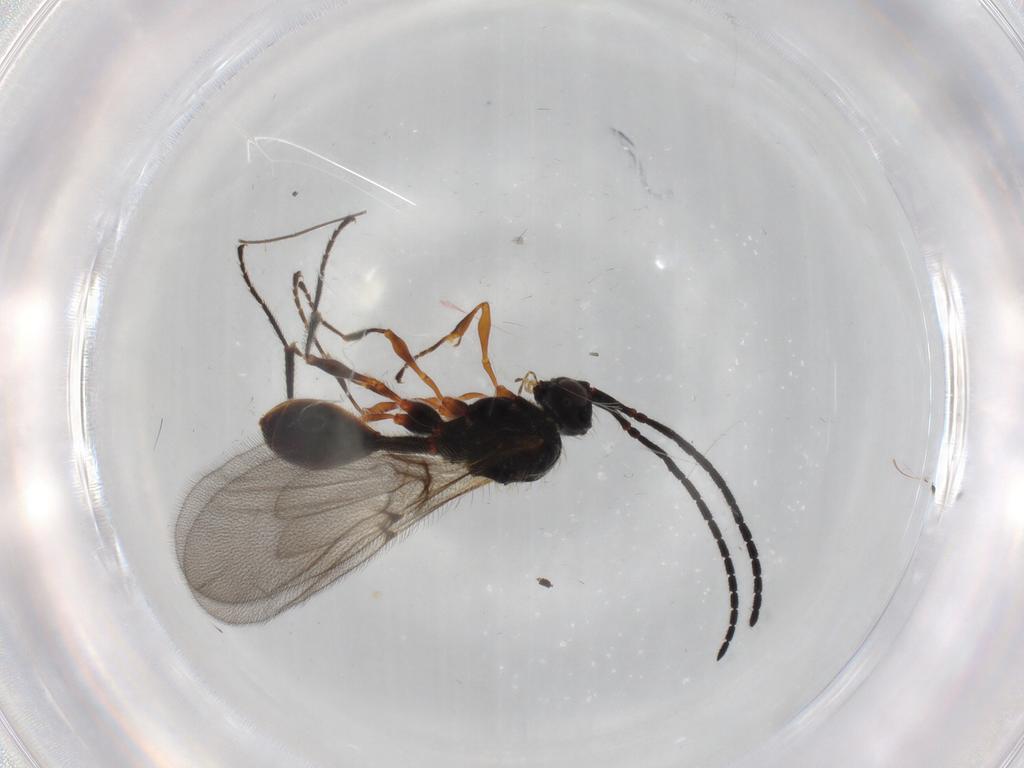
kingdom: Animalia
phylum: Arthropoda
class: Insecta
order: Hymenoptera
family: Diapriidae
